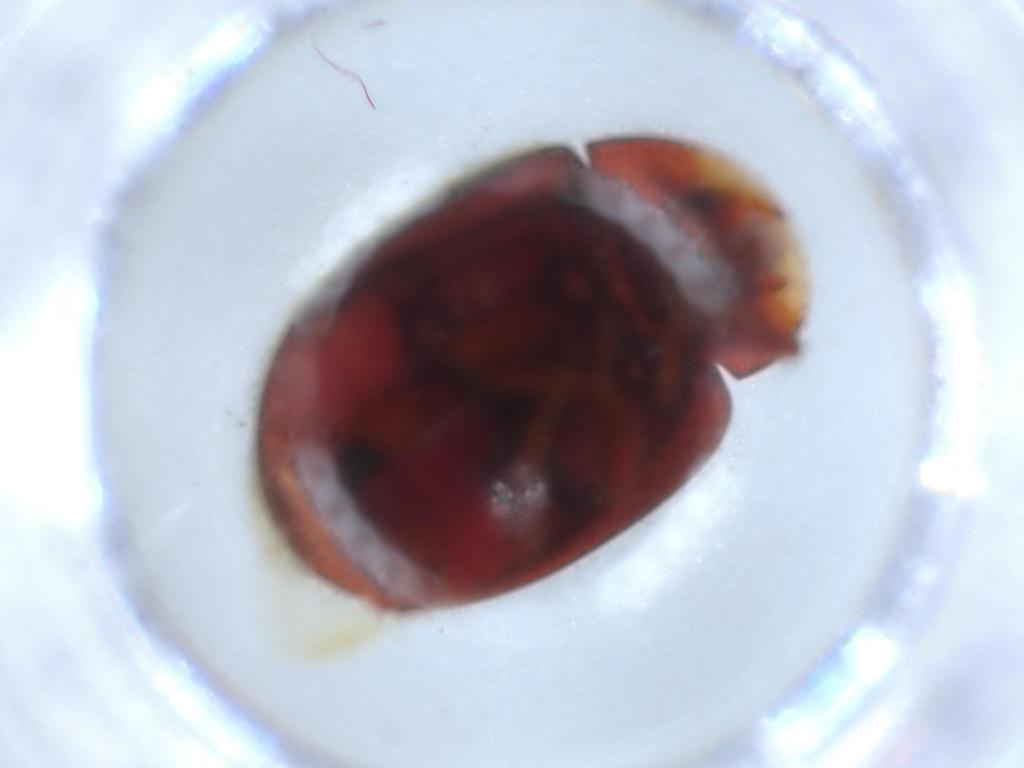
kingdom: Animalia
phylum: Arthropoda
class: Insecta
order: Coleoptera
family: Coccinellidae
